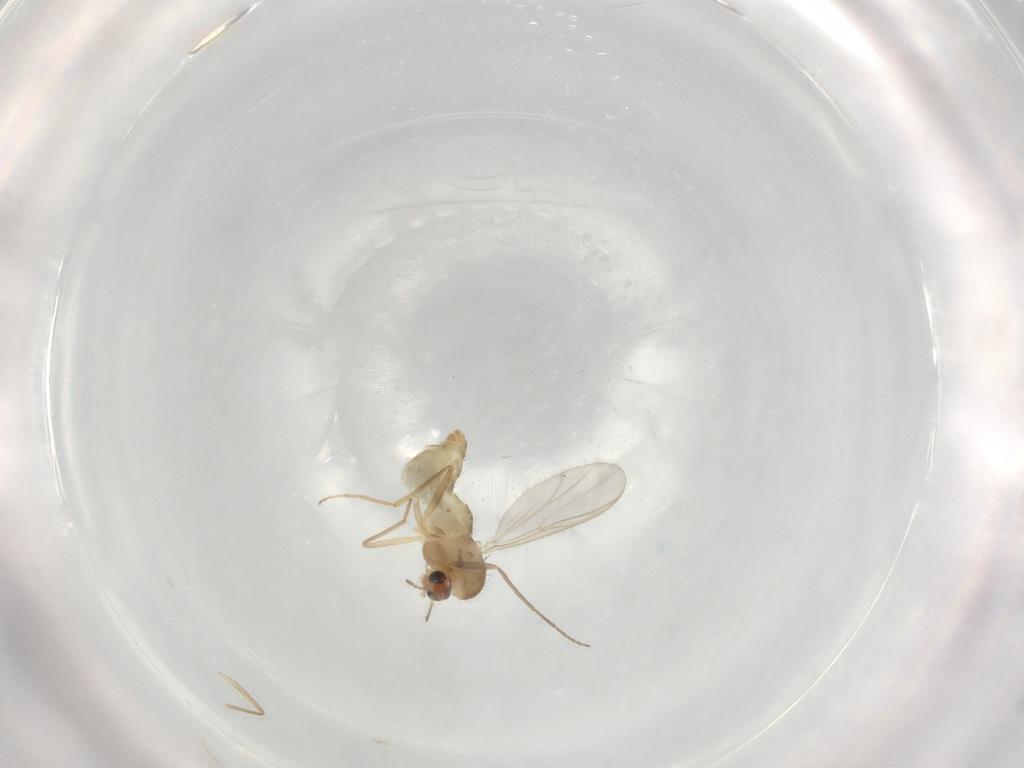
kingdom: Animalia
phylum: Arthropoda
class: Insecta
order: Diptera
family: Chironomidae
